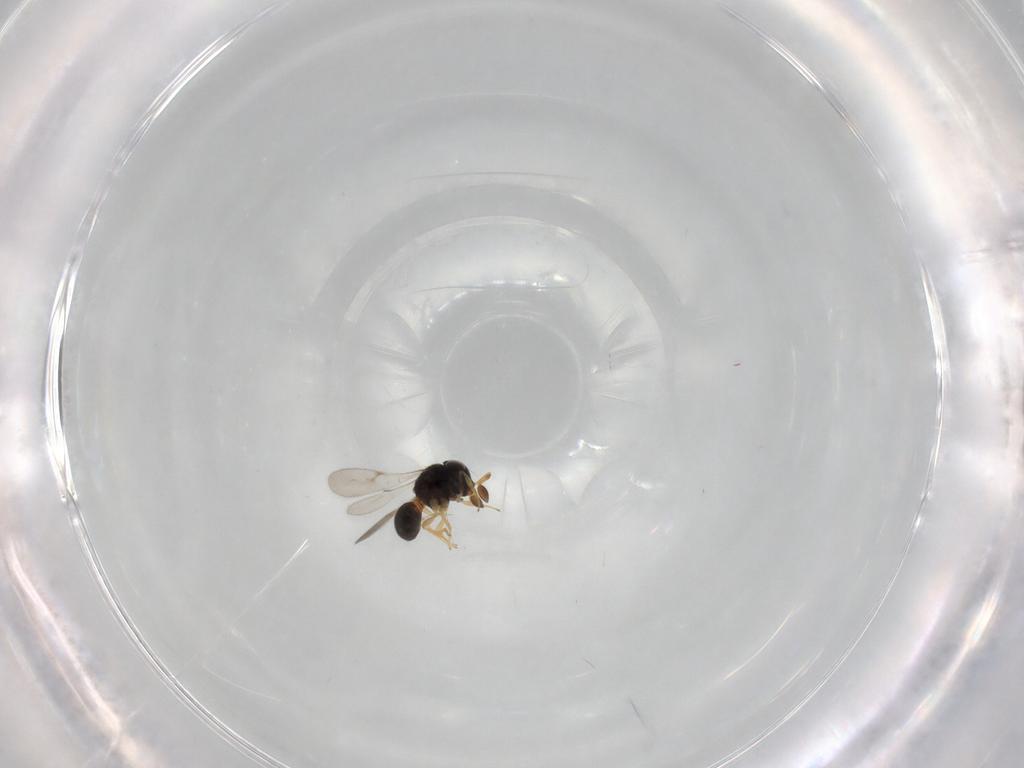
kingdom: Animalia
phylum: Arthropoda
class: Insecta
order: Hymenoptera
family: Scelionidae
